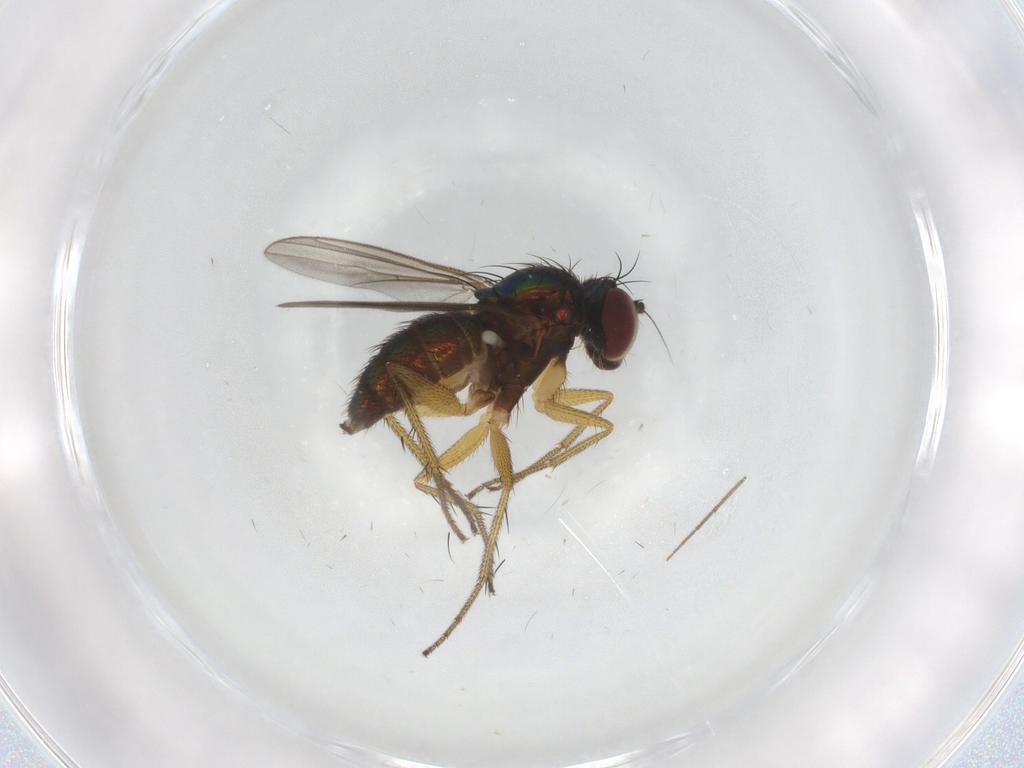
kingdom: Animalia
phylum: Arthropoda
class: Insecta
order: Diptera
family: Dolichopodidae
